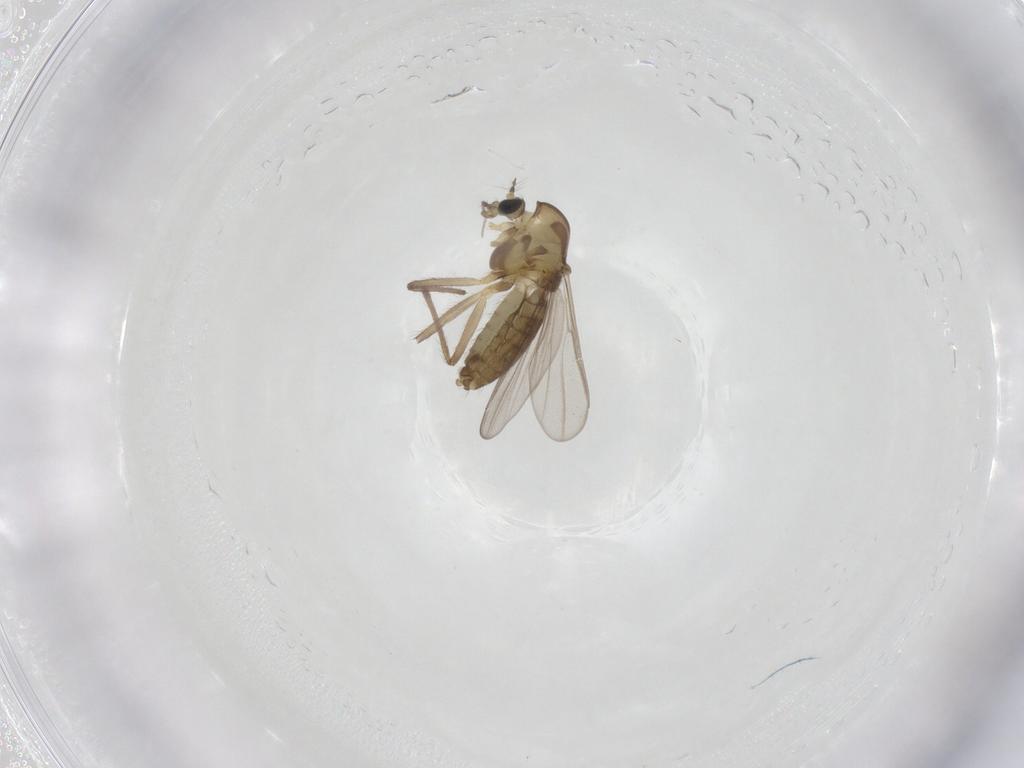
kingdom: Animalia
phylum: Arthropoda
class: Insecta
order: Diptera
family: Chironomidae
